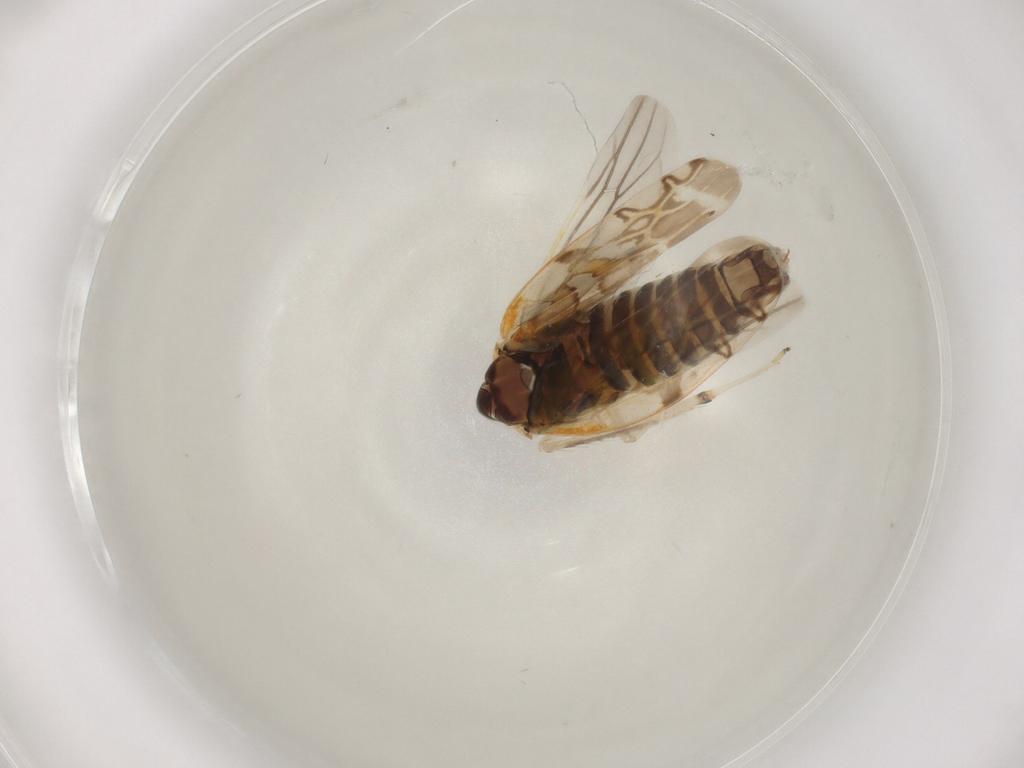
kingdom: Animalia
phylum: Arthropoda
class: Insecta
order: Hemiptera
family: Cicadellidae
